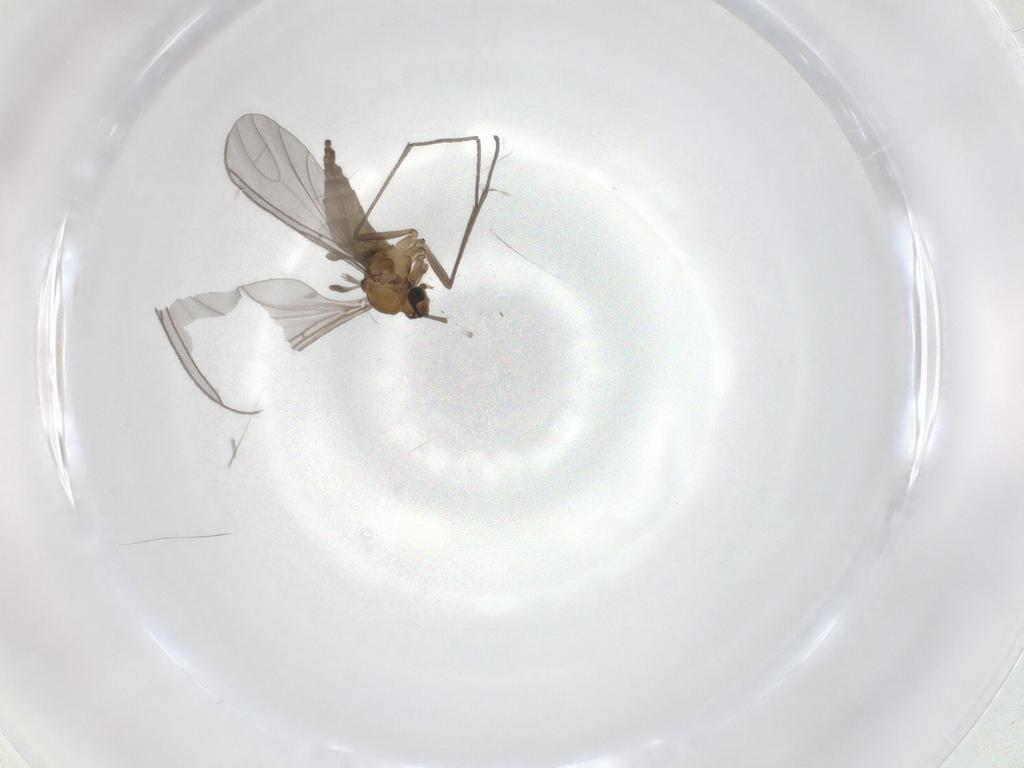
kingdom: Animalia
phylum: Arthropoda
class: Insecta
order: Diptera
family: Sciaridae
